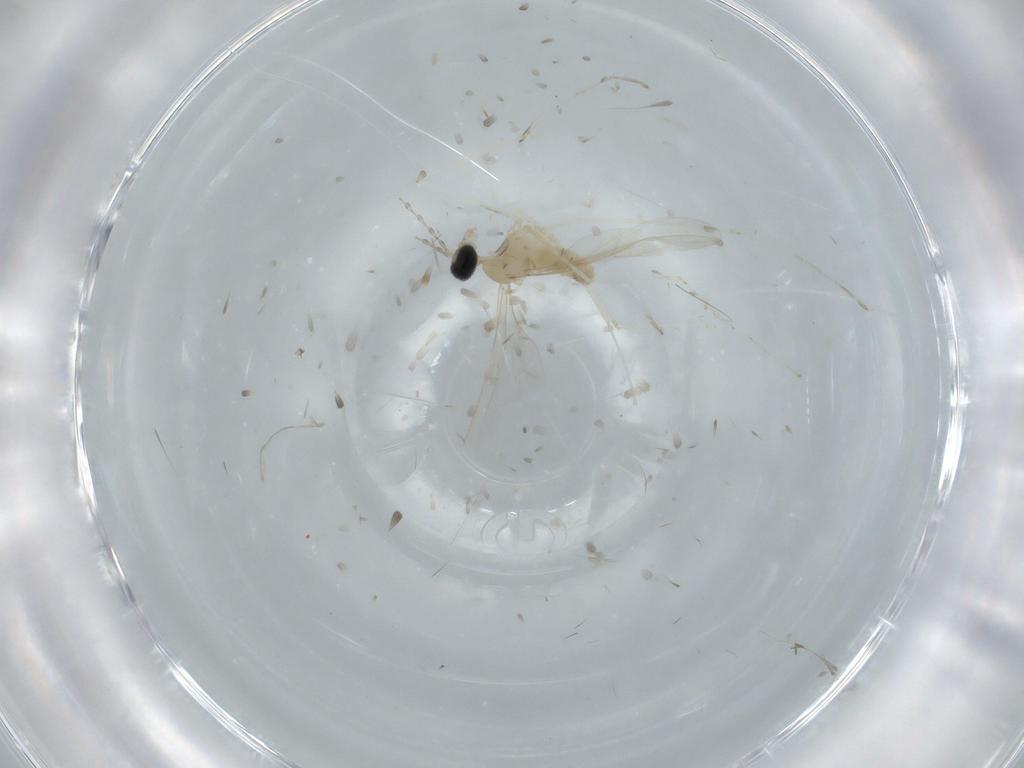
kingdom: Animalia
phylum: Arthropoda
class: Insecta
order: Diptera
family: Cecidomyiidae
